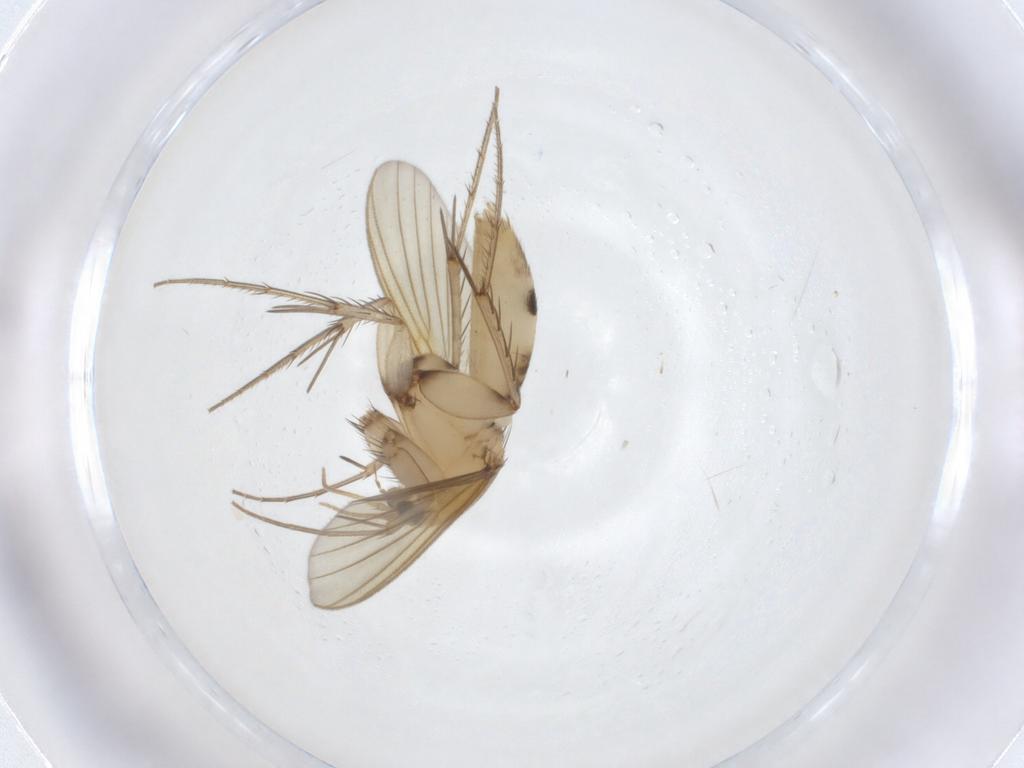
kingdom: Animalia
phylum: Arthropoda
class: Insecta
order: Diptera
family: Mycetophilidae
